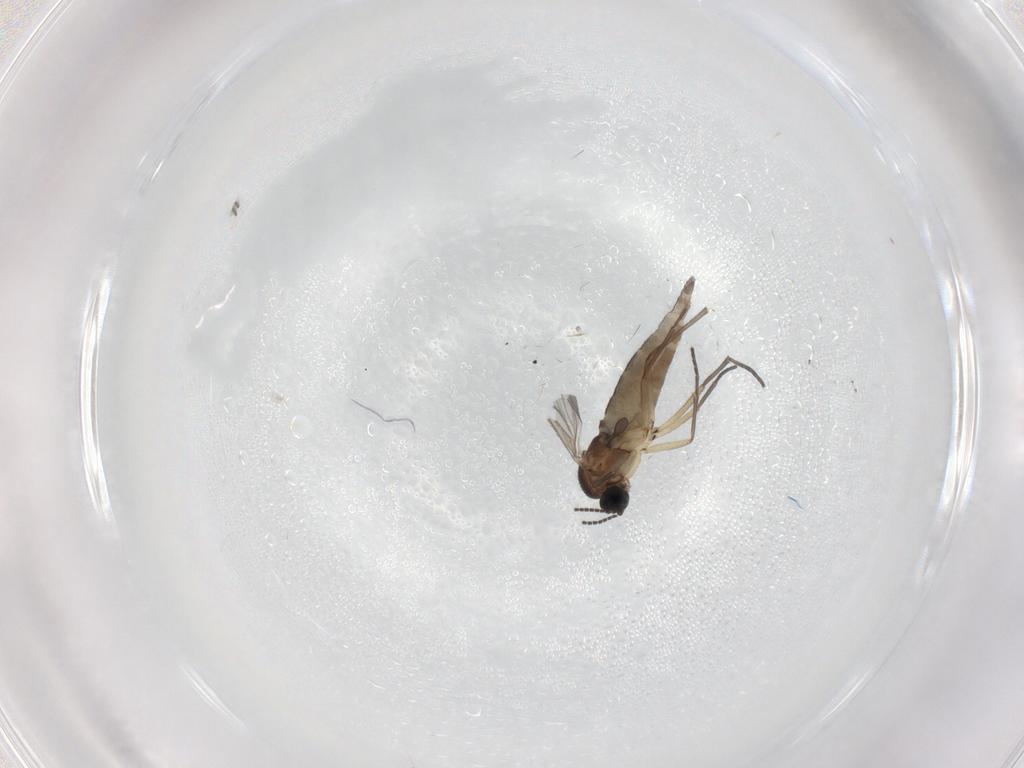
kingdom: Animalia
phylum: Arthropoda
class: Insecta
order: Diptera
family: Sciaridae
